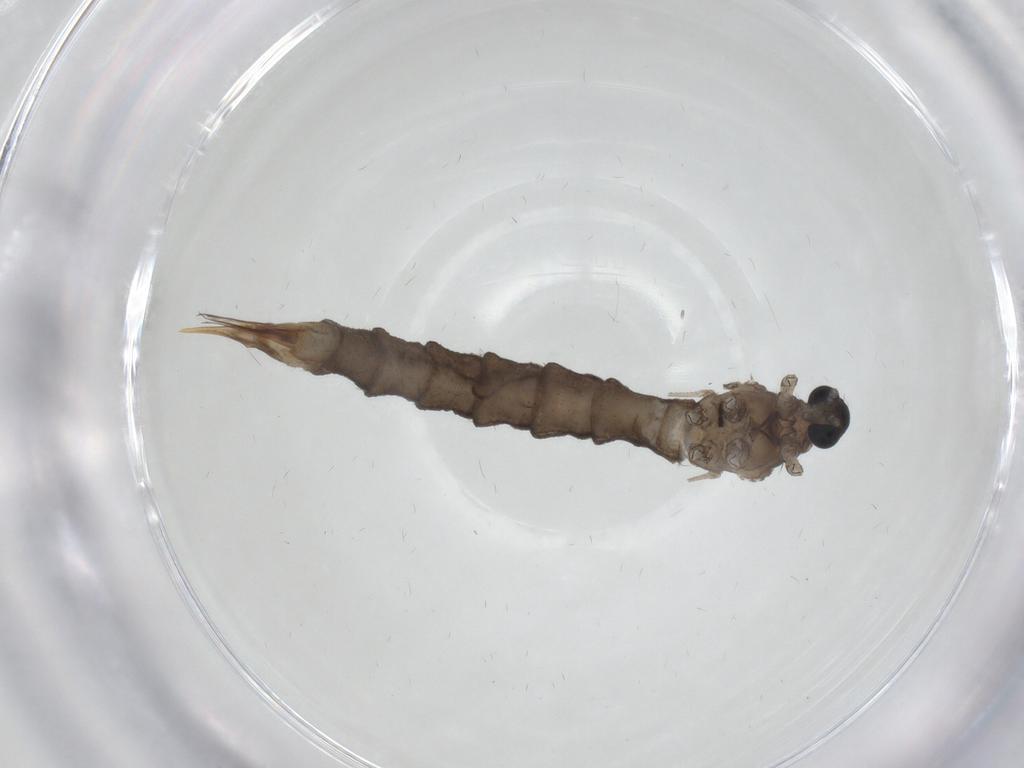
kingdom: Animalia
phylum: Arthropoda
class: Insecta
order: Diptera
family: Limoniidae
